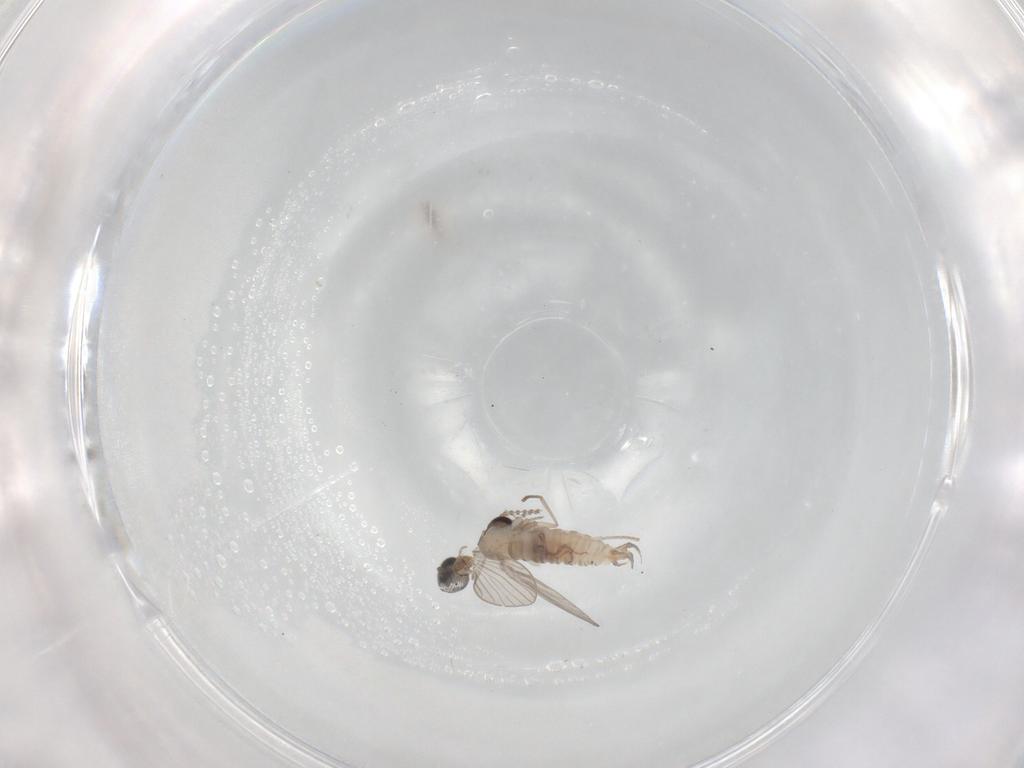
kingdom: Animalia
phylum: Arthropoda
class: Insecta
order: Diptera
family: Psychodidae
